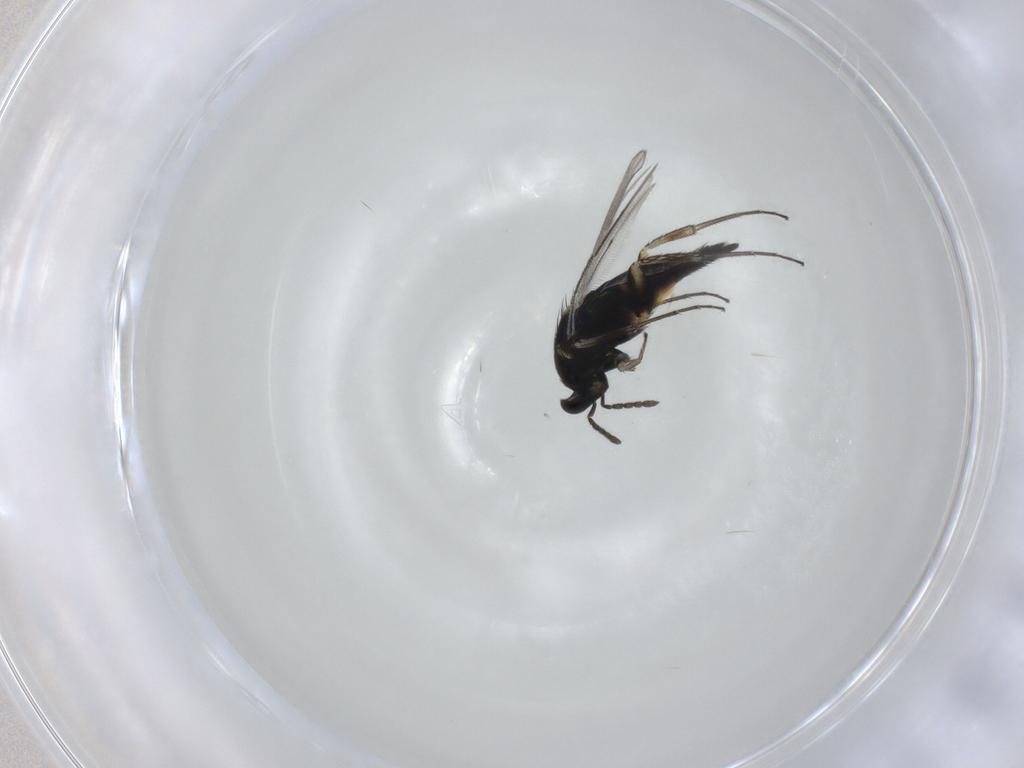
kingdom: Animalia
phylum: Arthropoda
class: Insecta
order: Hymenoptera
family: Eulophidae
